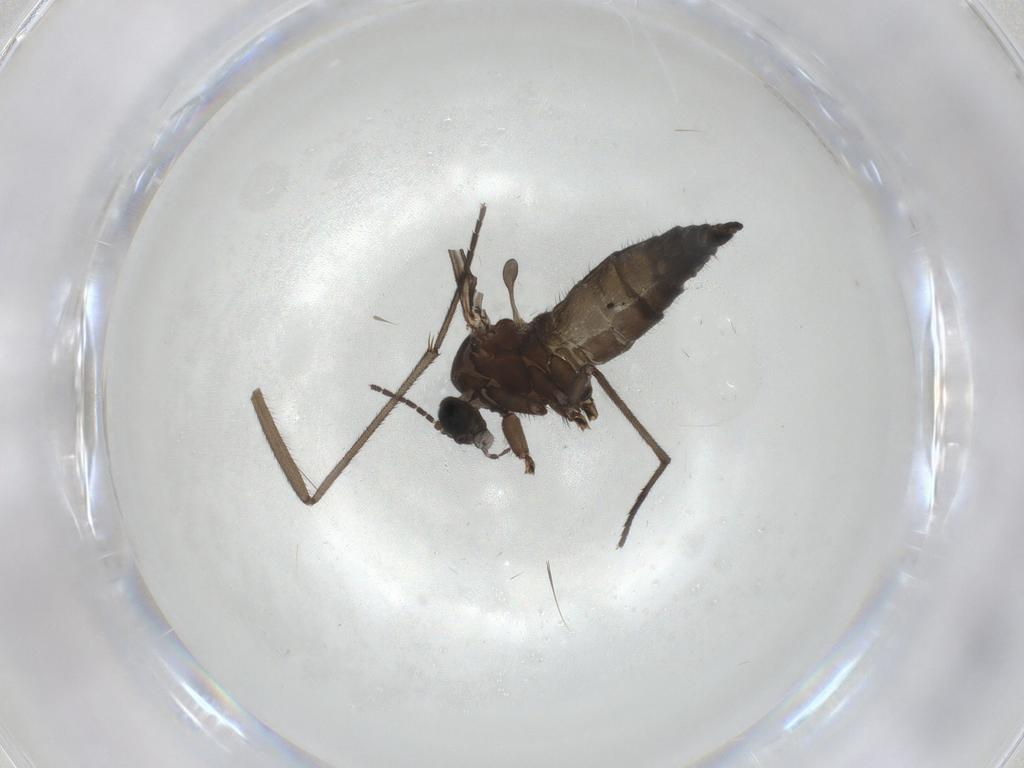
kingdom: Animalia
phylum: Arthropoda
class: Insecta
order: Diptera
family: Sciaridae
